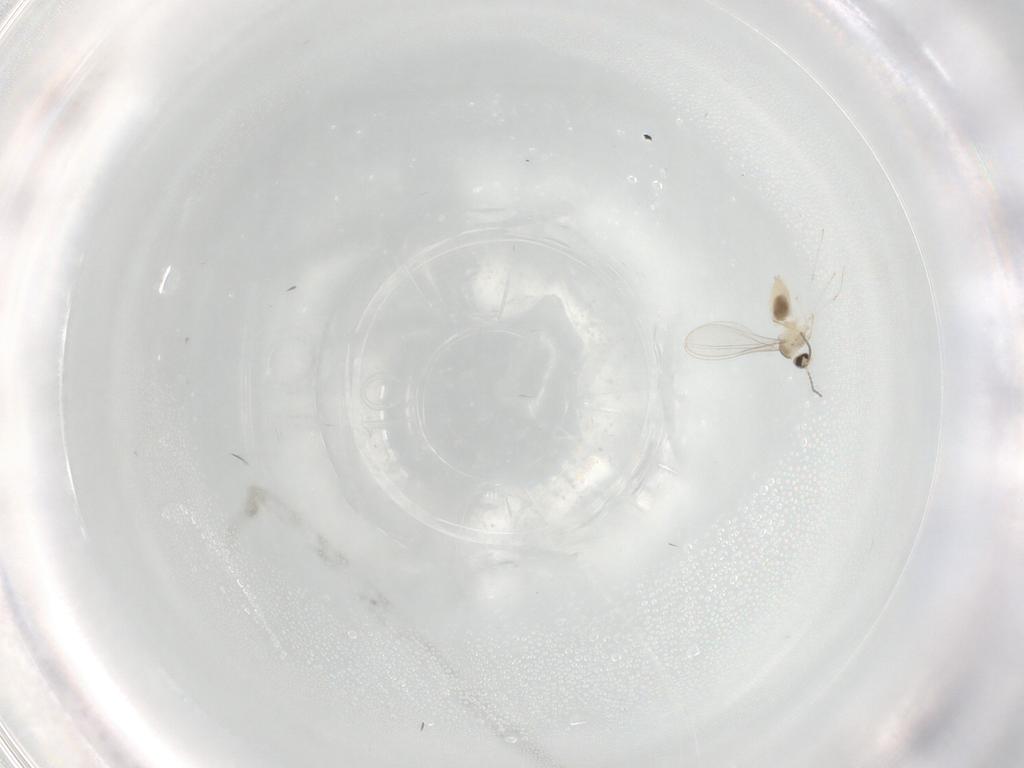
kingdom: Animalia
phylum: Arthropoda
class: Insecta
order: Diptera
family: Cecidomyiidae
